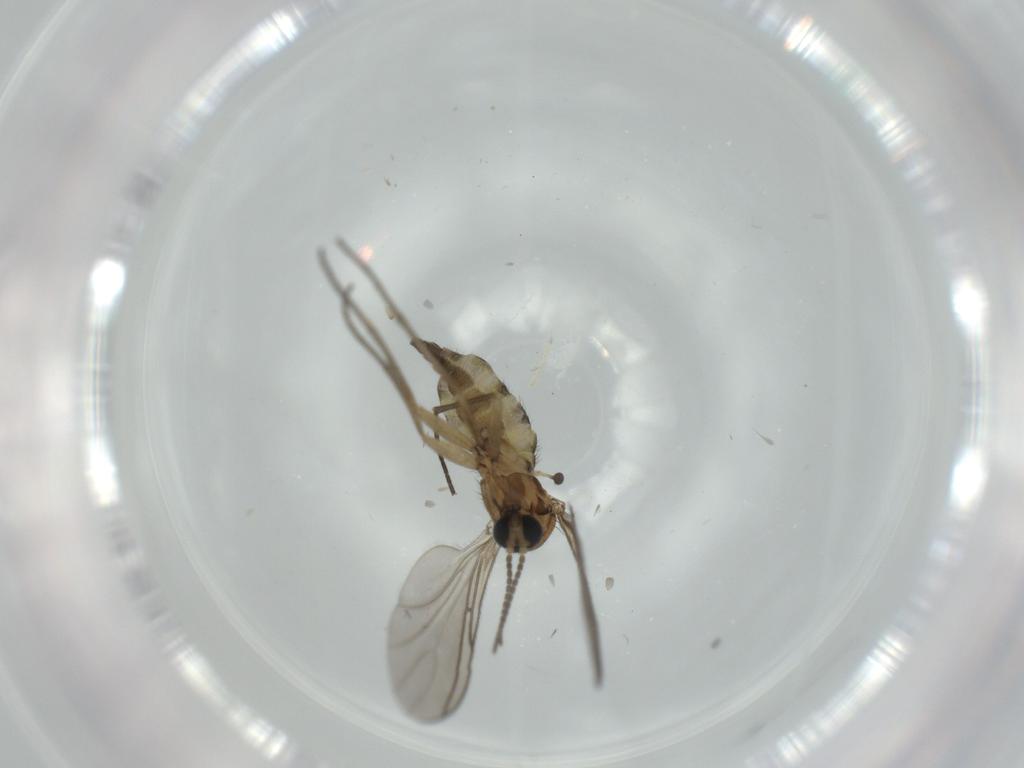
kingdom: Animalia
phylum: Arthropoda
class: Insecta
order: Diptera
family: Sciaridae
